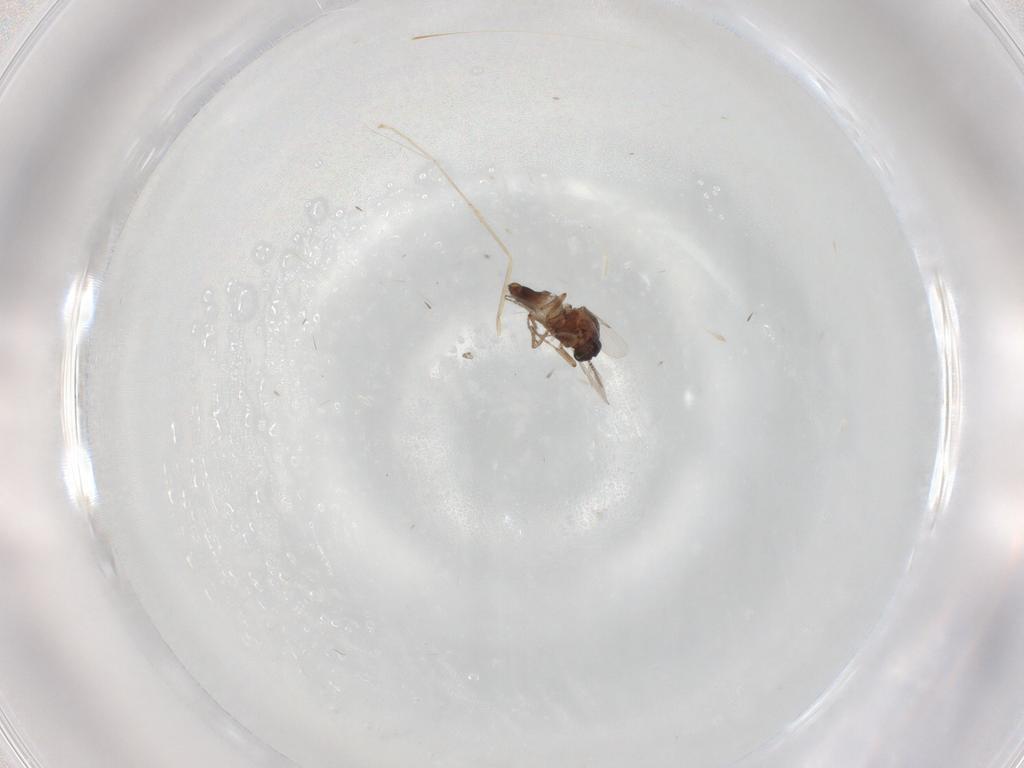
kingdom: Animalia
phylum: Arthropoda
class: Insecta
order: Diptera
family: Cecidomyiidae
